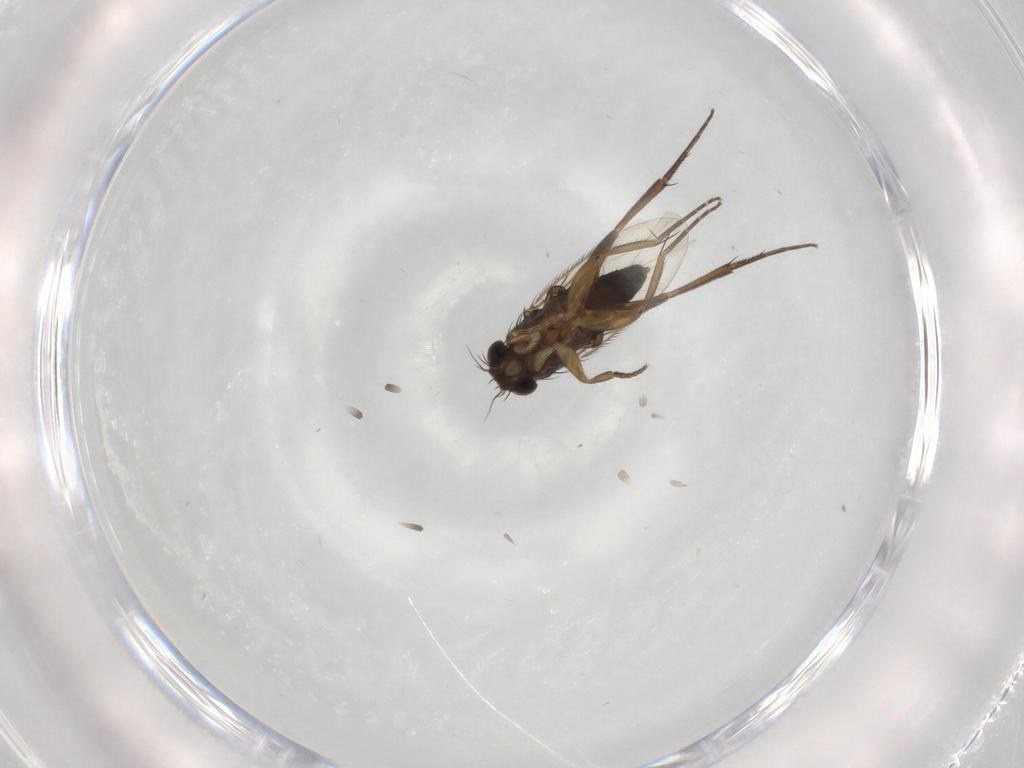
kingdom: Animalia
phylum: Arthropoda
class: Insecta
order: Diptera
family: Phoridae
